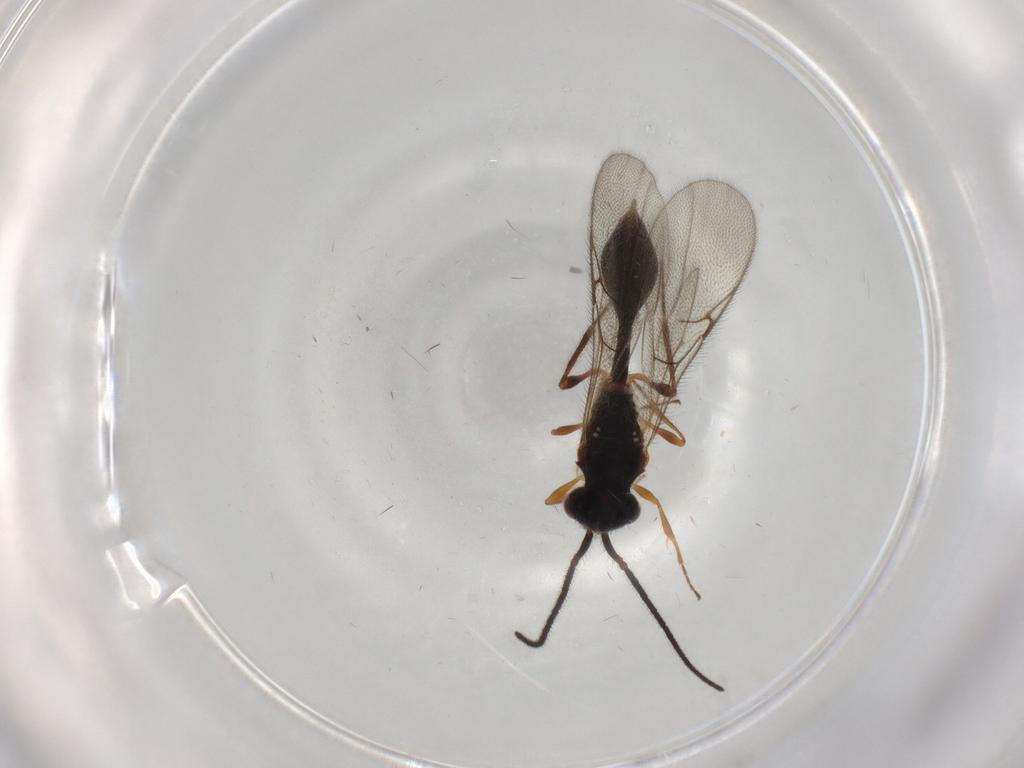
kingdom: Animalia
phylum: Arthropoda
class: Insecta
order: Hymenoptera
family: Diapriidae
